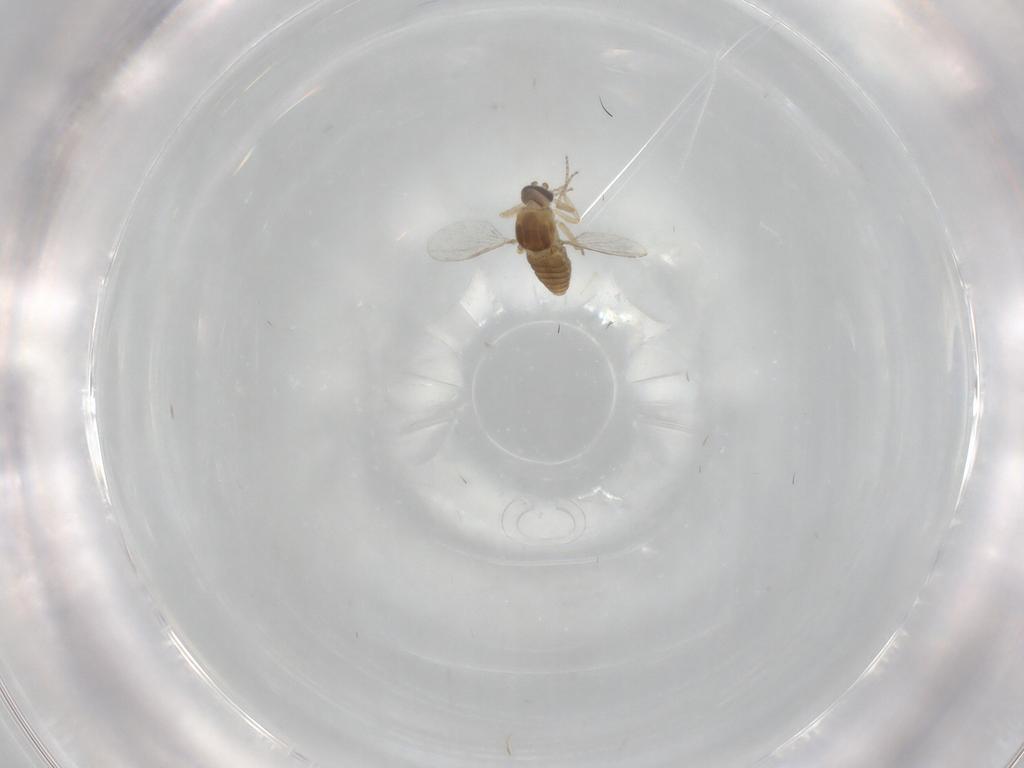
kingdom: Animalia
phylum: Arthropoda
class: Insecta
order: Diptera
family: Ceratopogonidae
